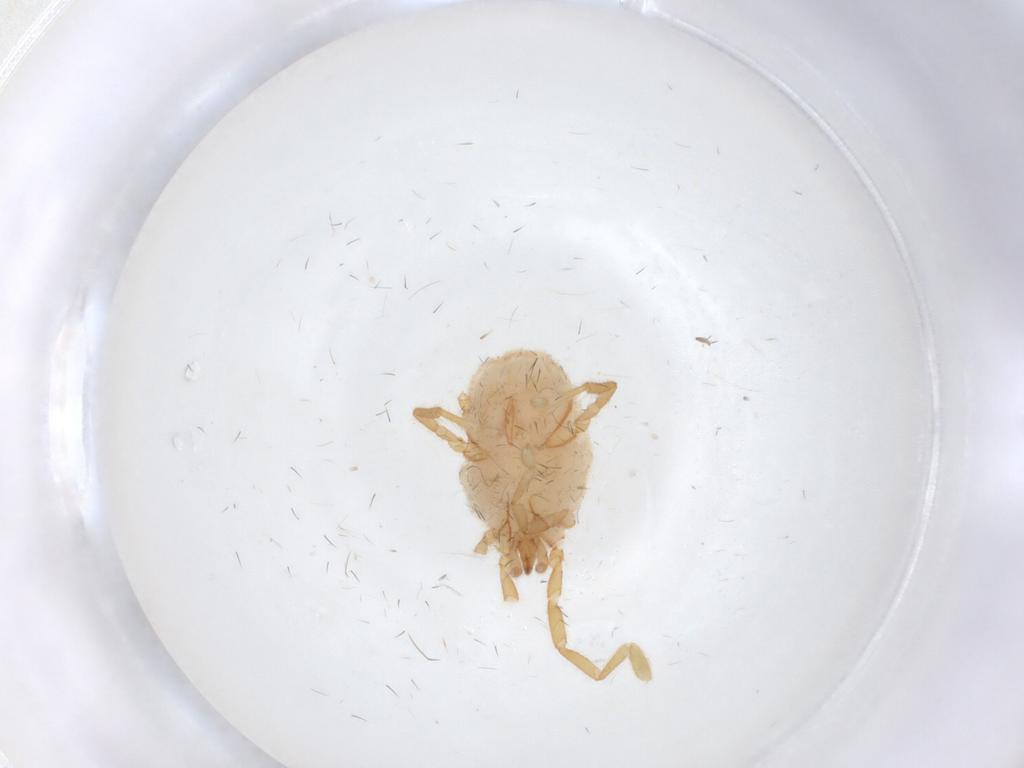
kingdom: Animalia
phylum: Arthropoda
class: Arachnida
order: Trombidiformes
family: Erythraeidae
